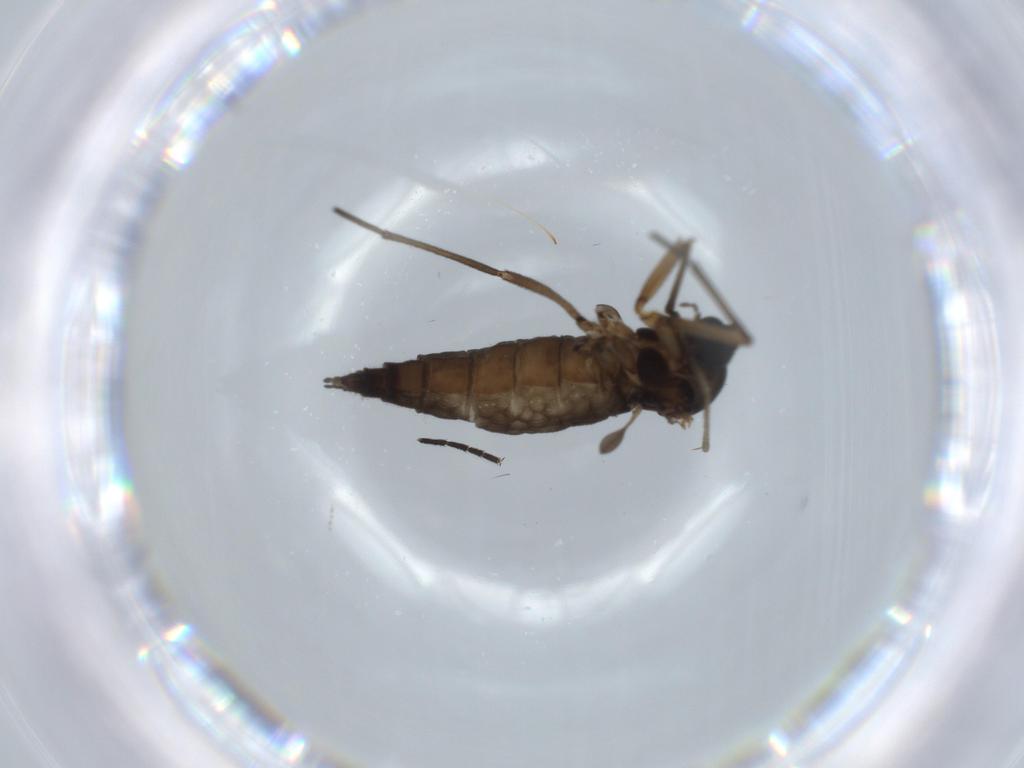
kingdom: Animalia
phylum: Arthropoda
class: Insecta
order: Diptera
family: Sciaridae
